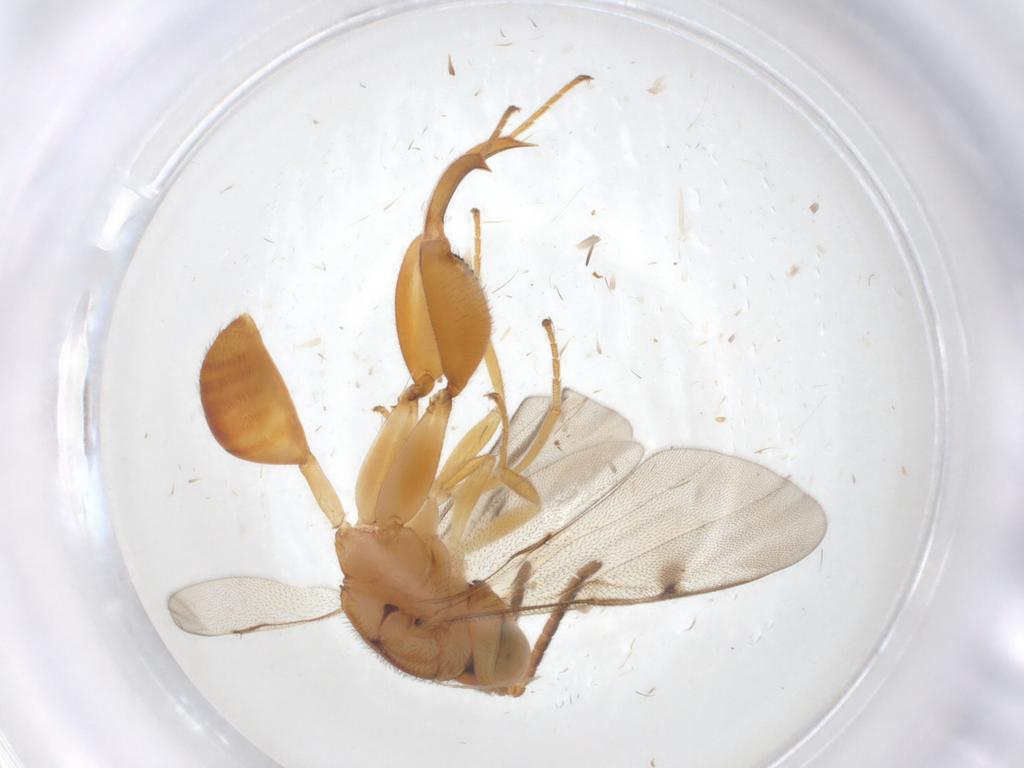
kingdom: Animalia
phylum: Arthropoda
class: Insecta
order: Hymenoptera
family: Chalcididae
